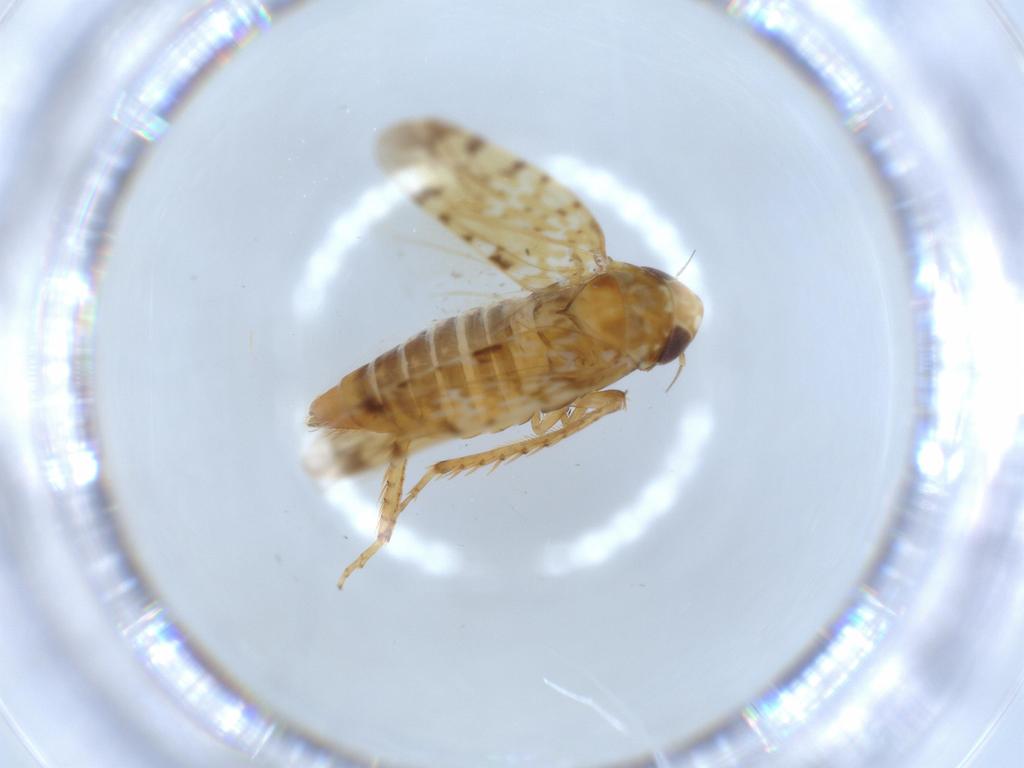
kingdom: Animalia
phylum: Arthropoda
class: Insecta
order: Hemiptera
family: Cicadellidae
